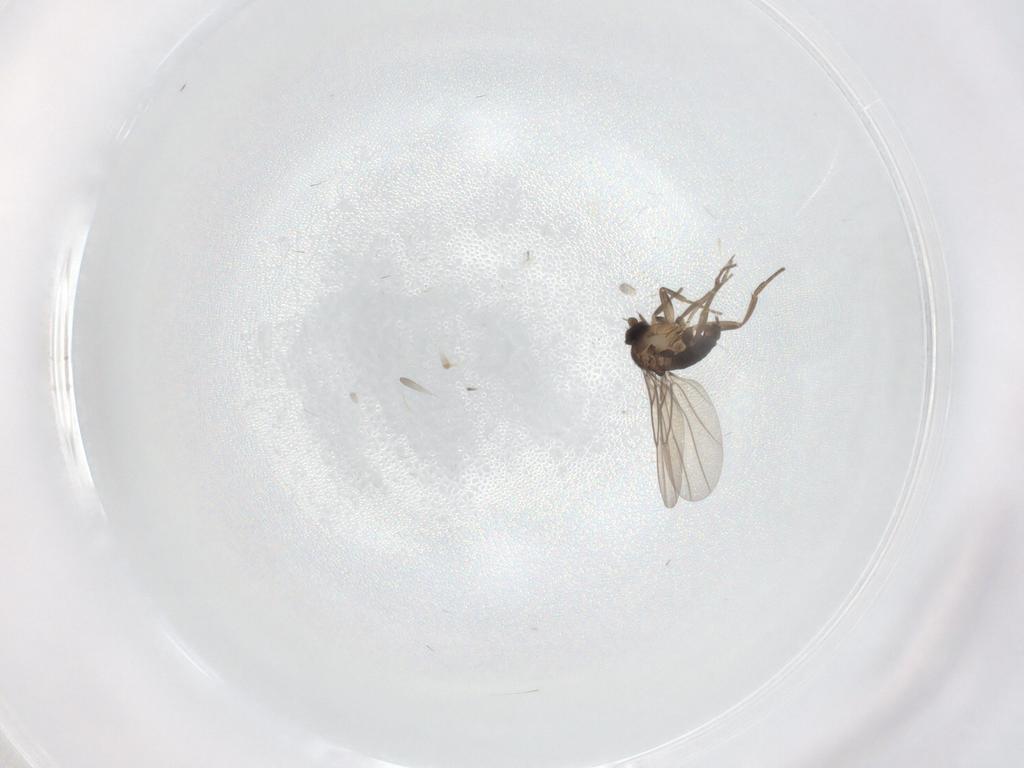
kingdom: Animalia
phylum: Arthropoda
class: Insecta
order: Diptera
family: Phoridae
